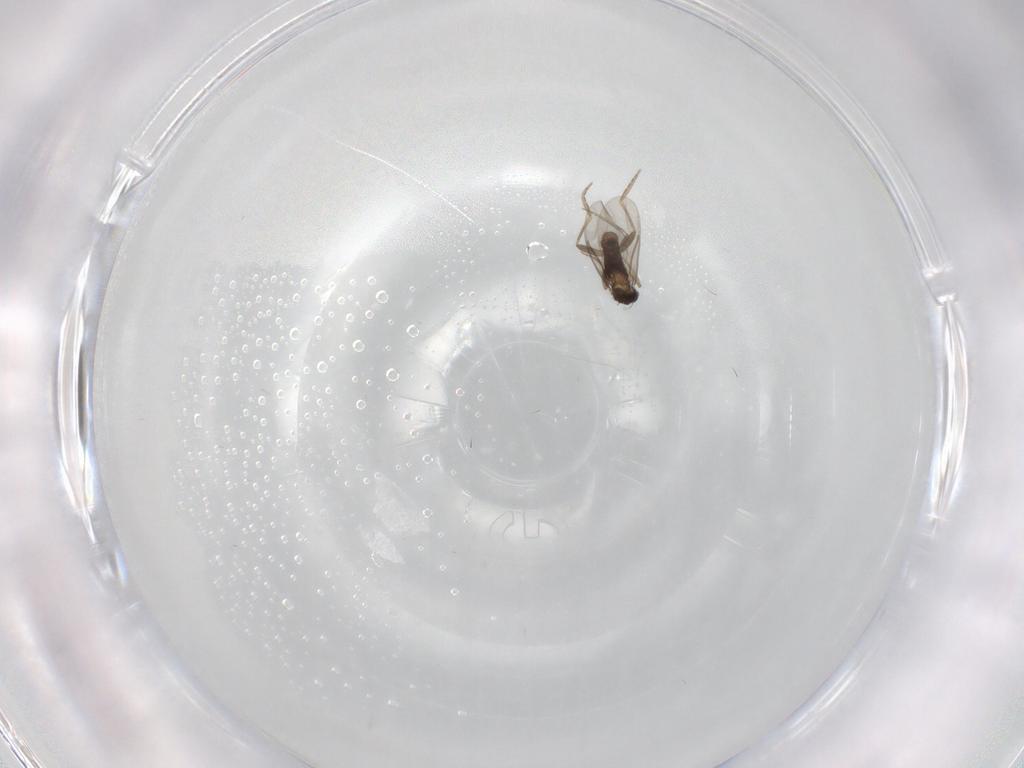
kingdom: Animalia
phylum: Arthropoda
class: Insecta
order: Diptera
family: Phoridae
